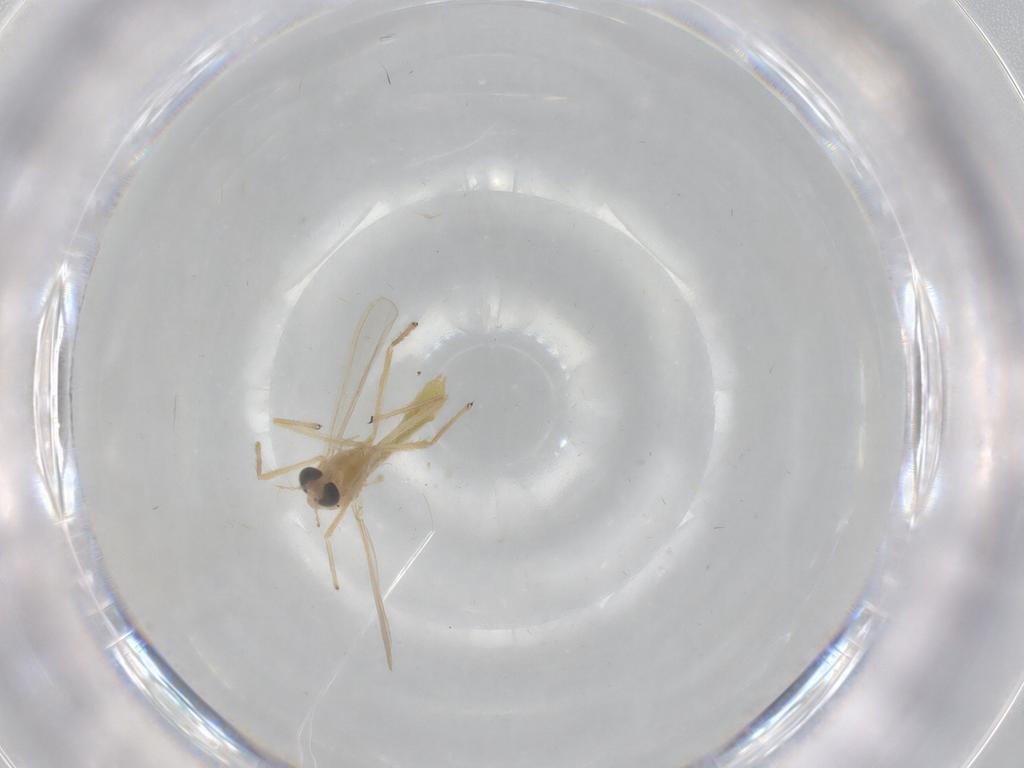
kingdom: Animalia
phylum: Arthropoda
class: Insecta
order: Diptera
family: Chironomidae
